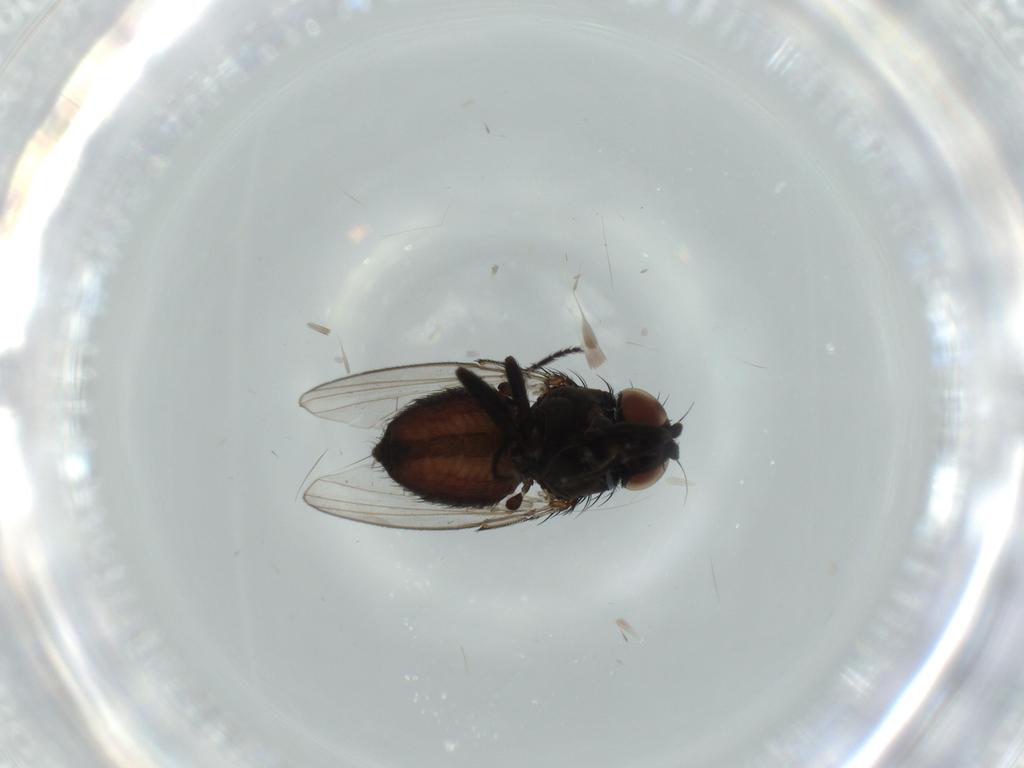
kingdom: Animalia
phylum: Arthropoda
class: Insecta
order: Diptera
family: Milichiidae
